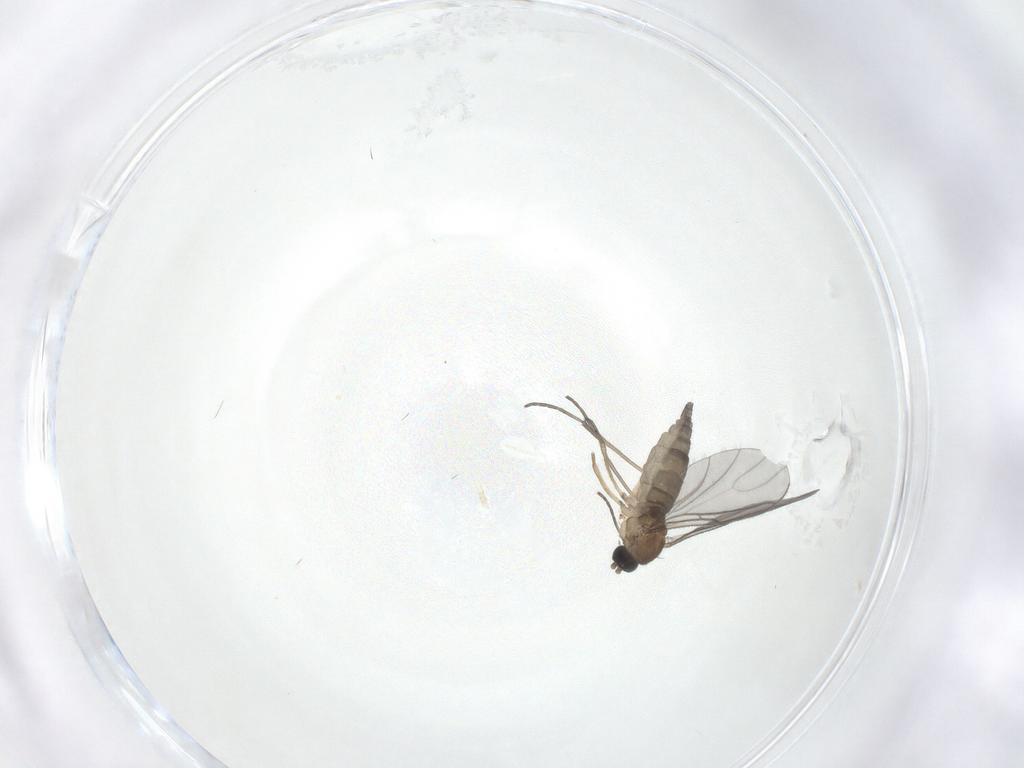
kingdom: Animalia
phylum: Arthropoda
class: Insecta
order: Diptera
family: Sciaridae
